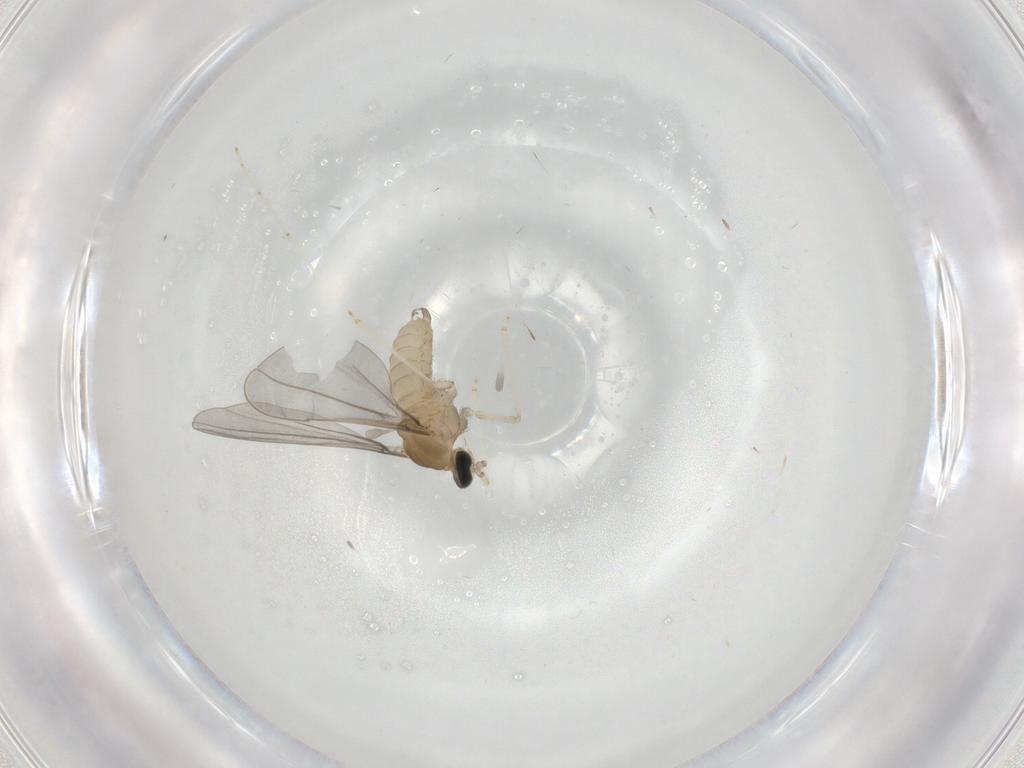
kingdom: Animalia
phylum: Arthropoda
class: Insecta
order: Diptera
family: Cecidomyiidae
